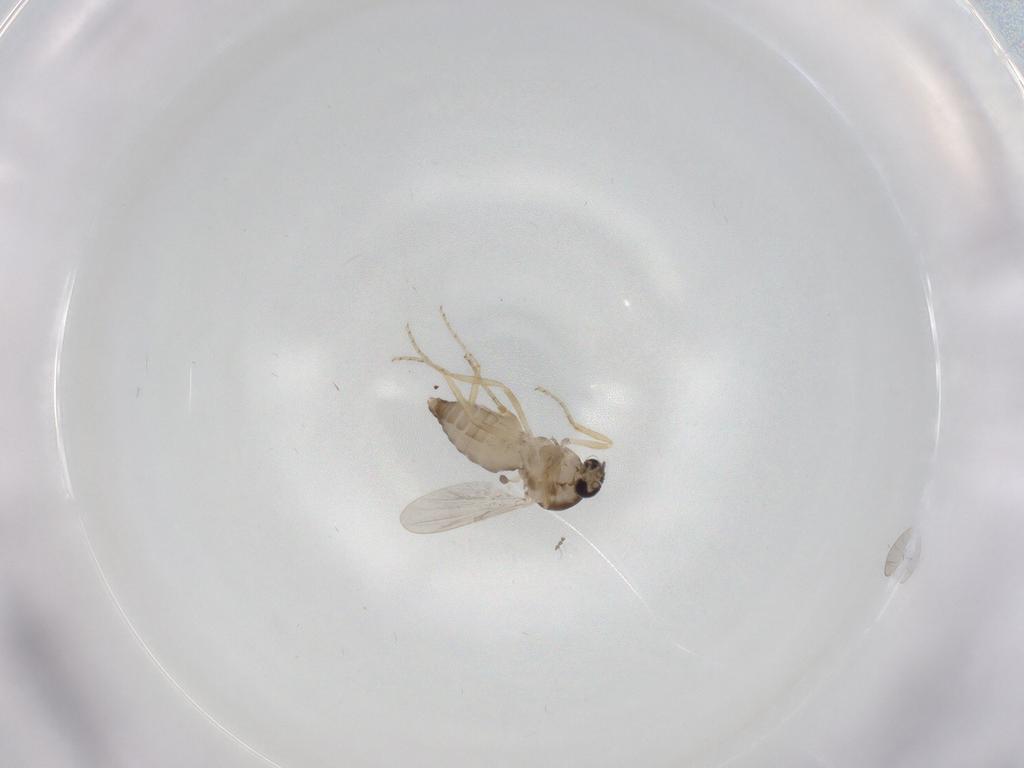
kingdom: Animalia
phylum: Arthropoda
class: Insecta
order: Diptera
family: Ceratopogonidae
